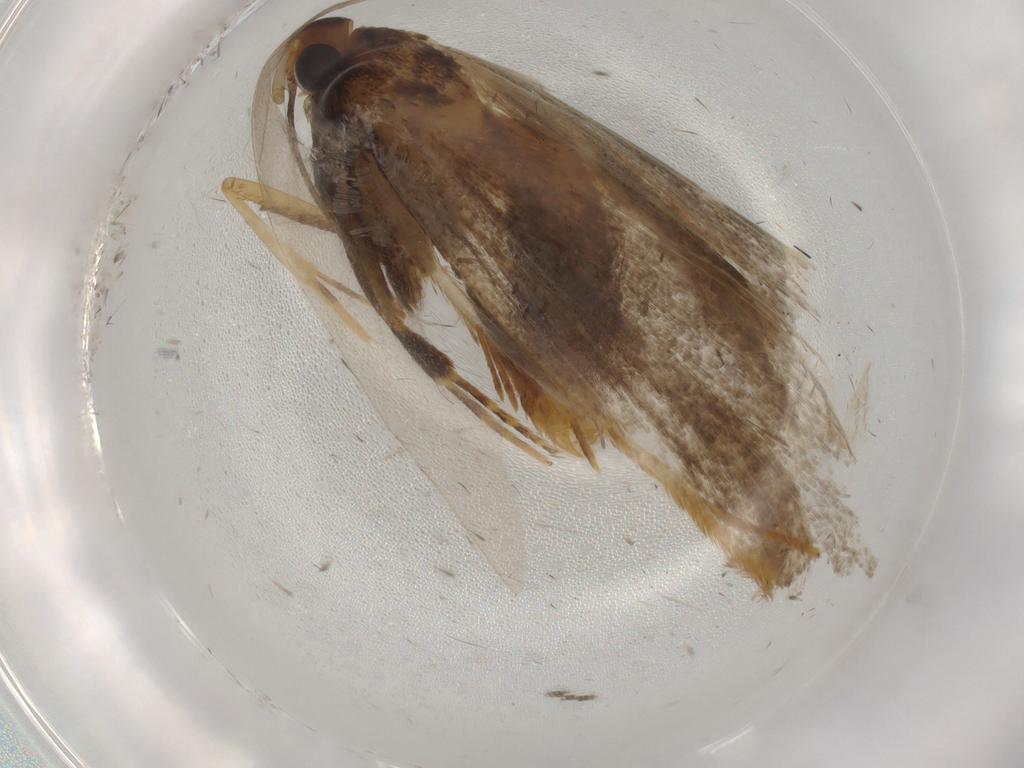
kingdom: Animalia
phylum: Arthropoda
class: Insecta
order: Lepidoptera
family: Lecithoceridae
